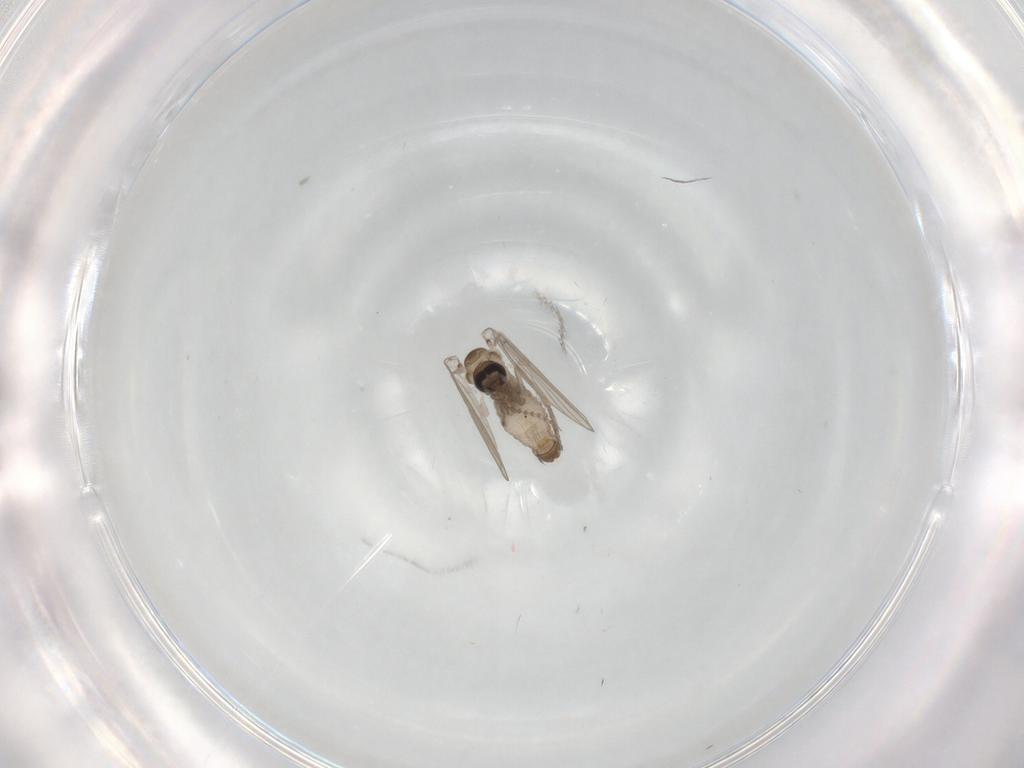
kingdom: Animalia
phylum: Arthropoda
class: Insecta
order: Diptera
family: Psychodidae
